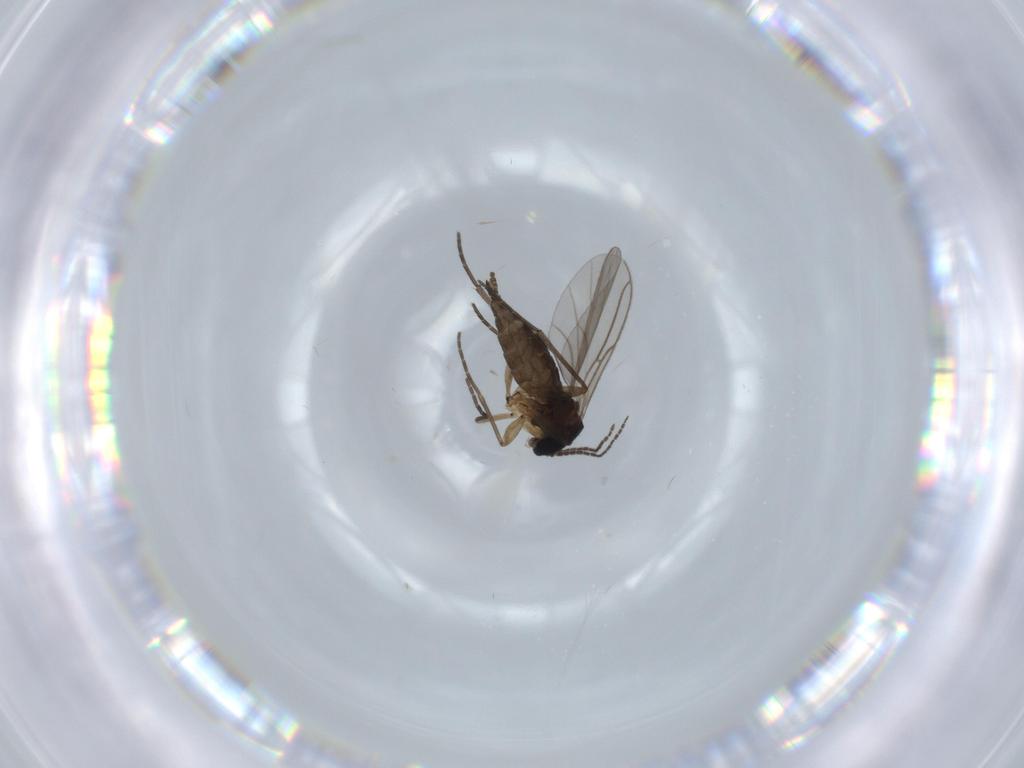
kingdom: Animalia
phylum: Arthropoda
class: Insecta
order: Diptera
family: Sciaridae
